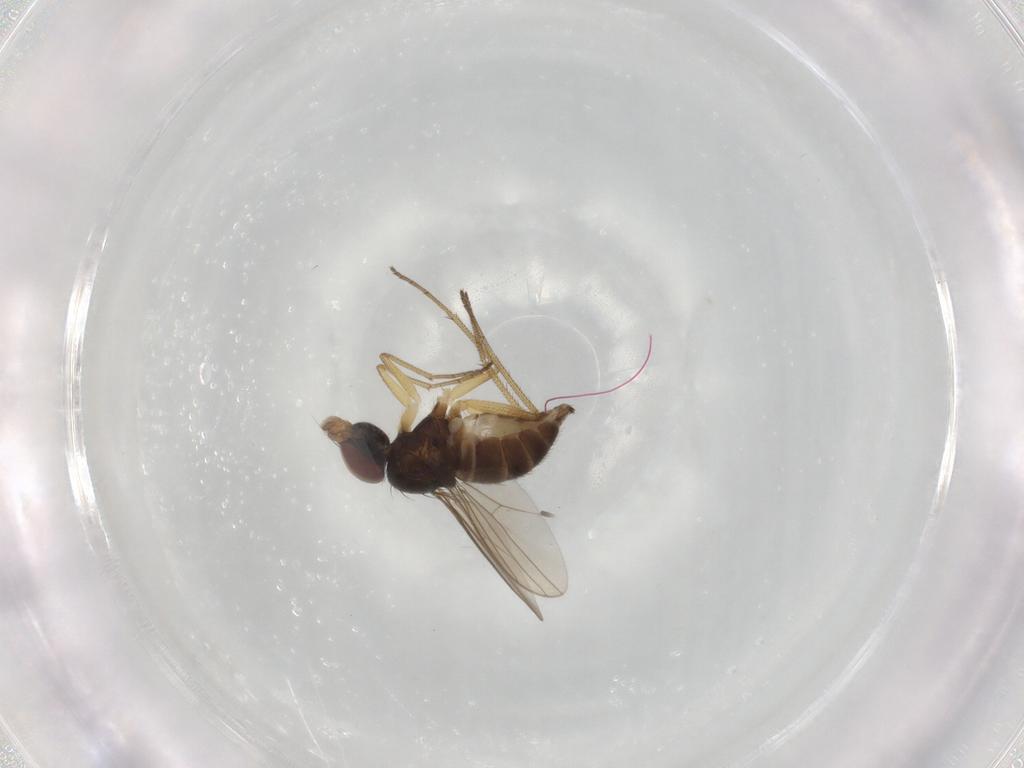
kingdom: Animalia
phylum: Arthropoda
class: Insecta
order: Diptera
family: Dolichopodidae
